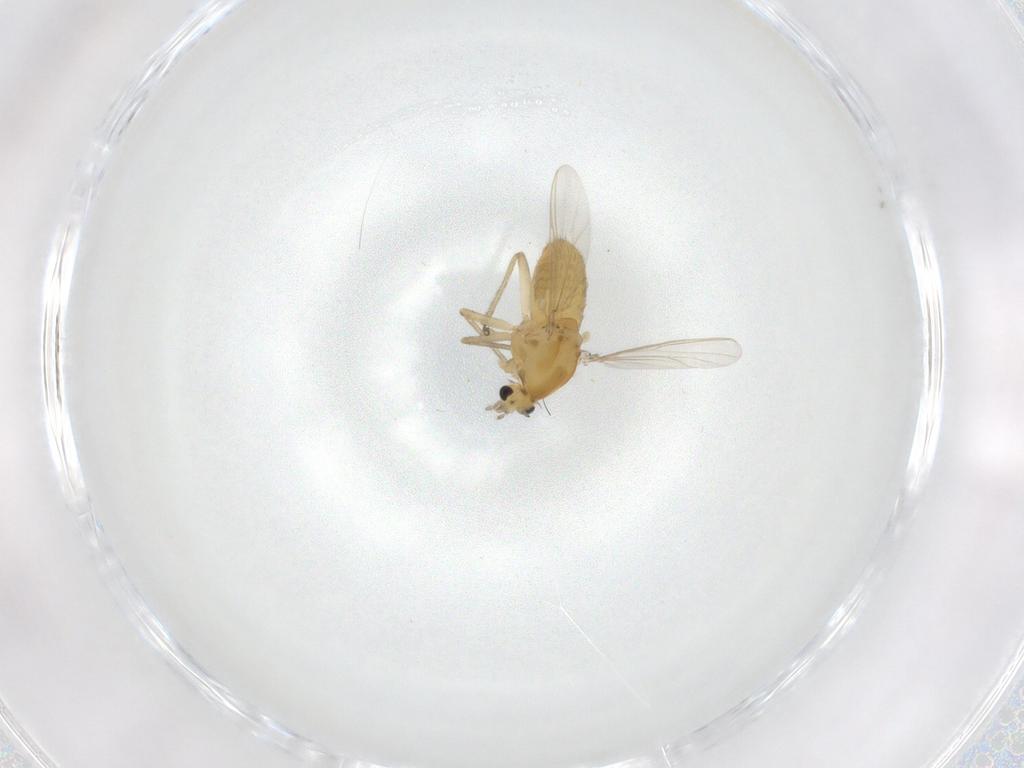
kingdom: Animalia
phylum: Arthropoda
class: Insecta
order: Diptera
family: Chironomidae
